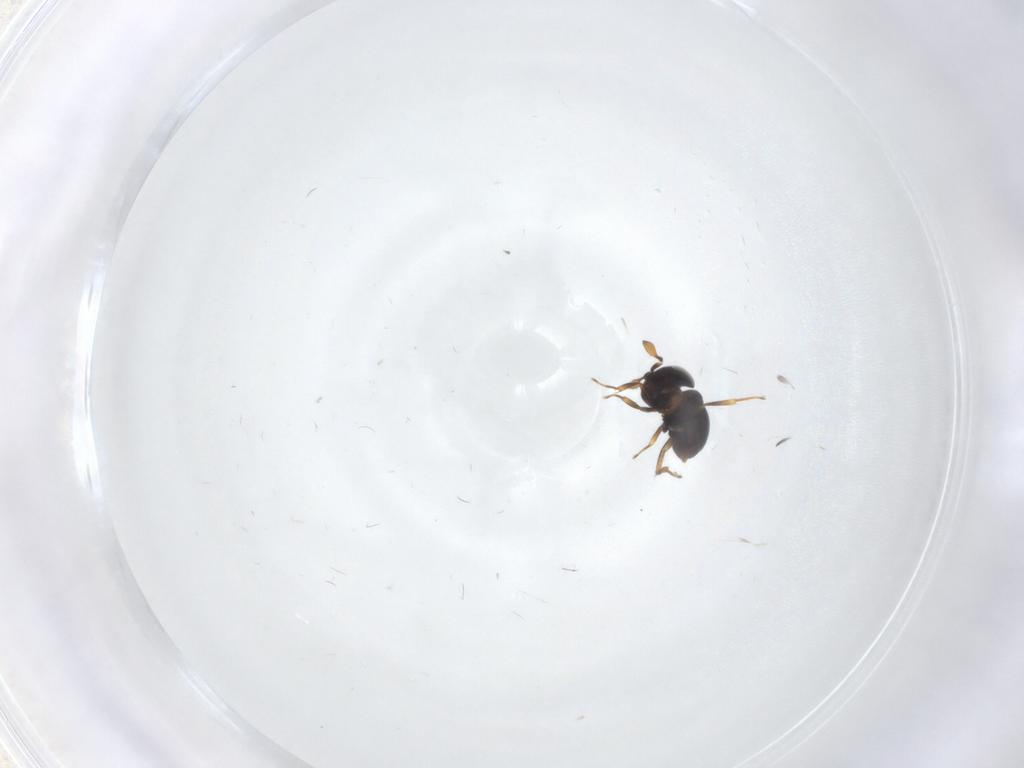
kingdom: Animalia
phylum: Arthropoda
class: Insecta
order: Hymenoptera
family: Scelionidae
